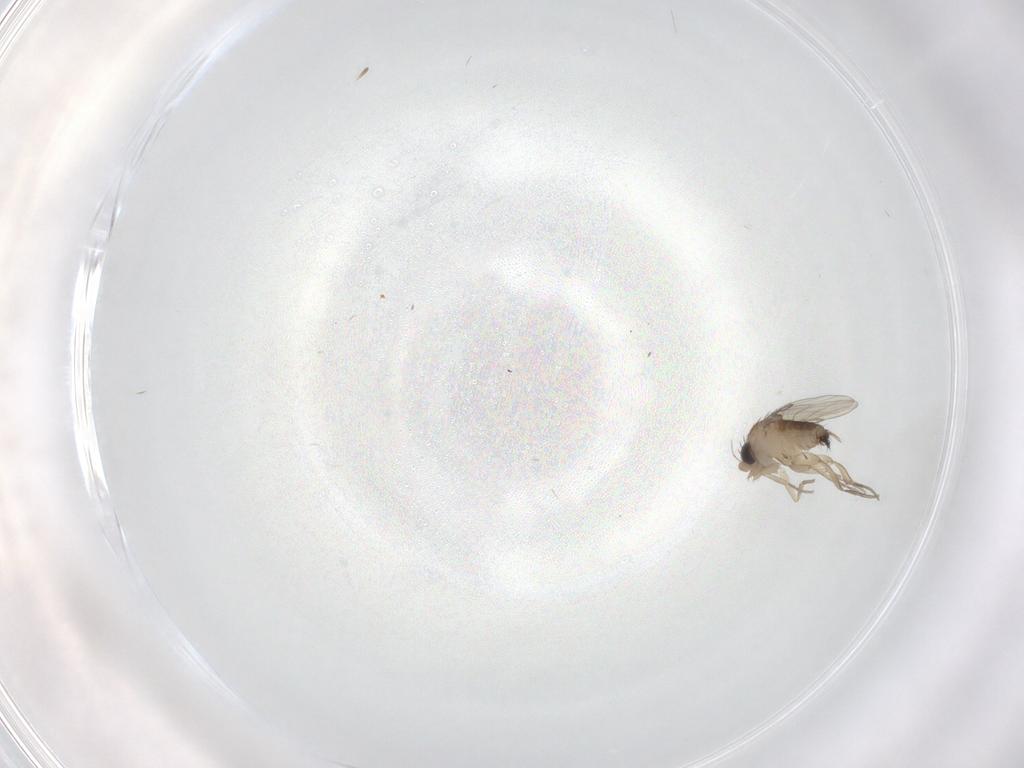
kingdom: Animalia
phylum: Arthropoda
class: Insecta
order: Diptera
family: Phoridae
